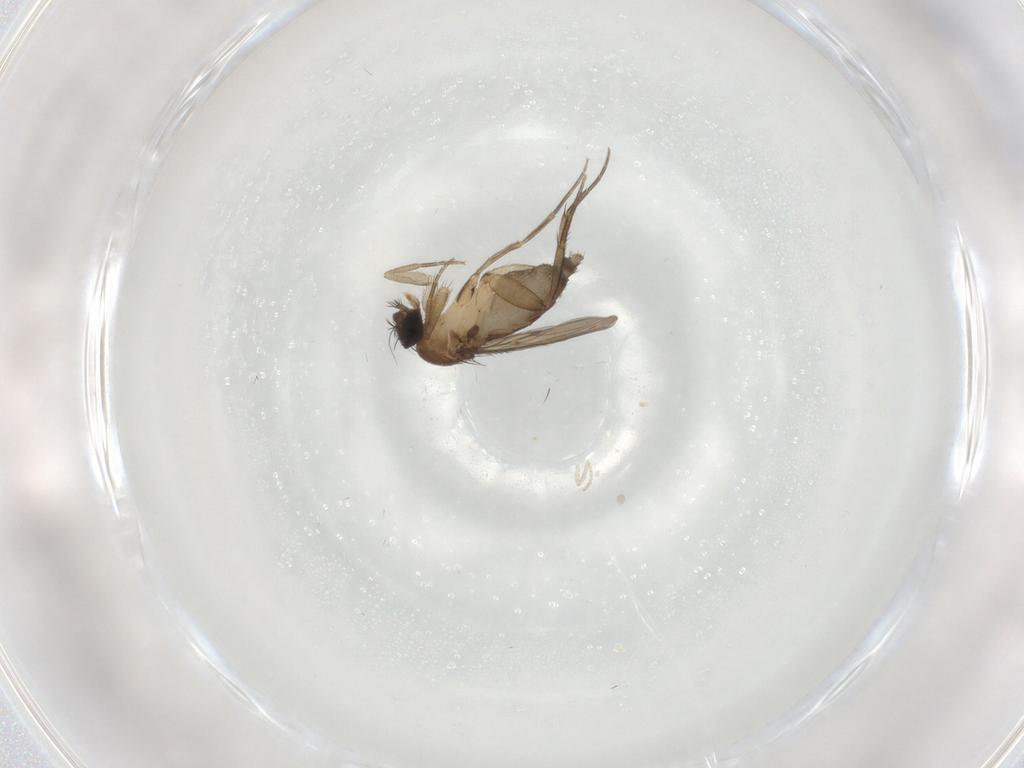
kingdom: Animalia
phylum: Arthropoda
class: Insecta
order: Diptera
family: Phoridae
